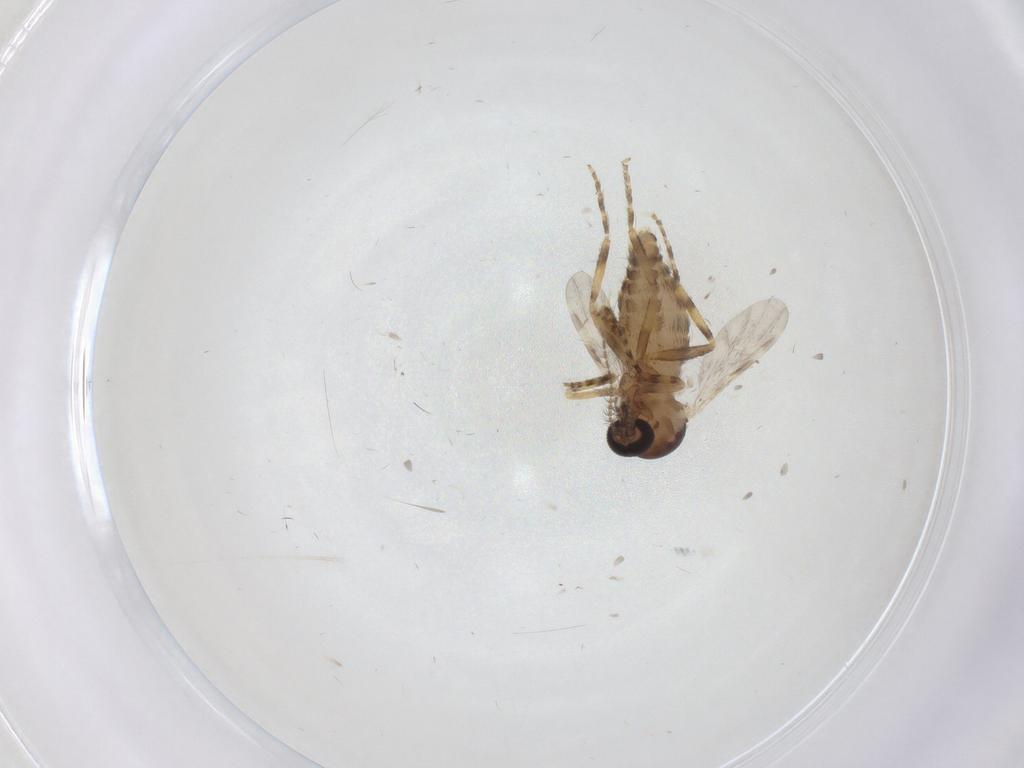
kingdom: Animalia
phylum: Arthropoda
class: Insecta
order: Diptera
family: Ceratopogonidae
